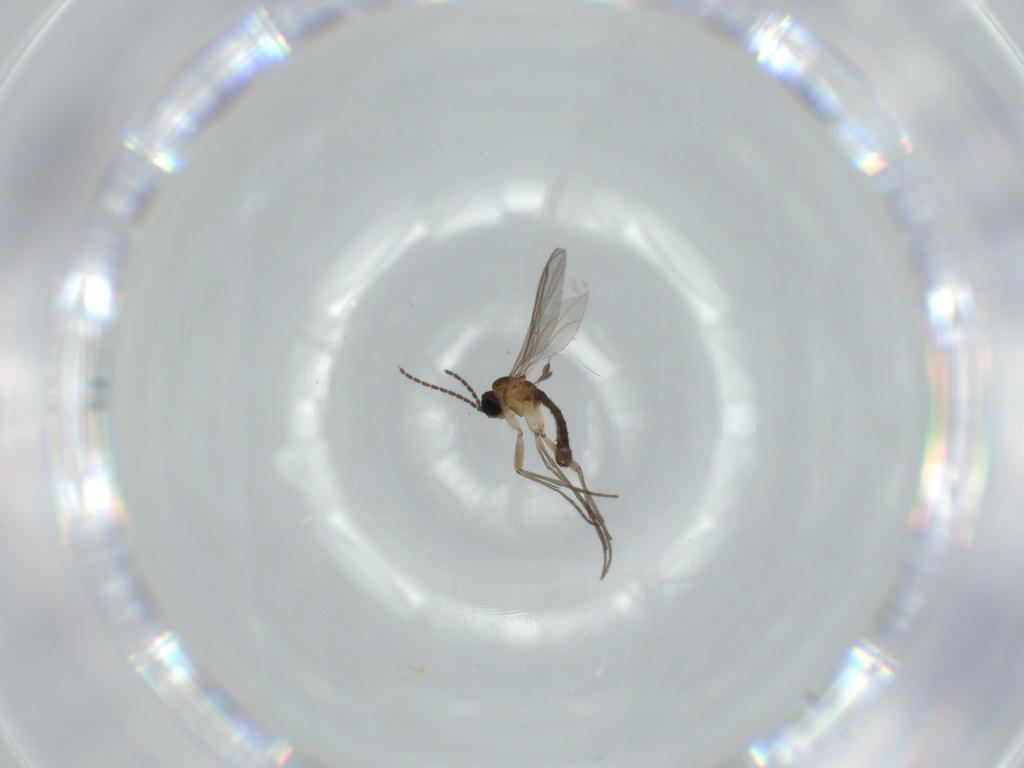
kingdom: Animalia
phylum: Arthropoda
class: Insecta
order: Diptera
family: Sciaridae
